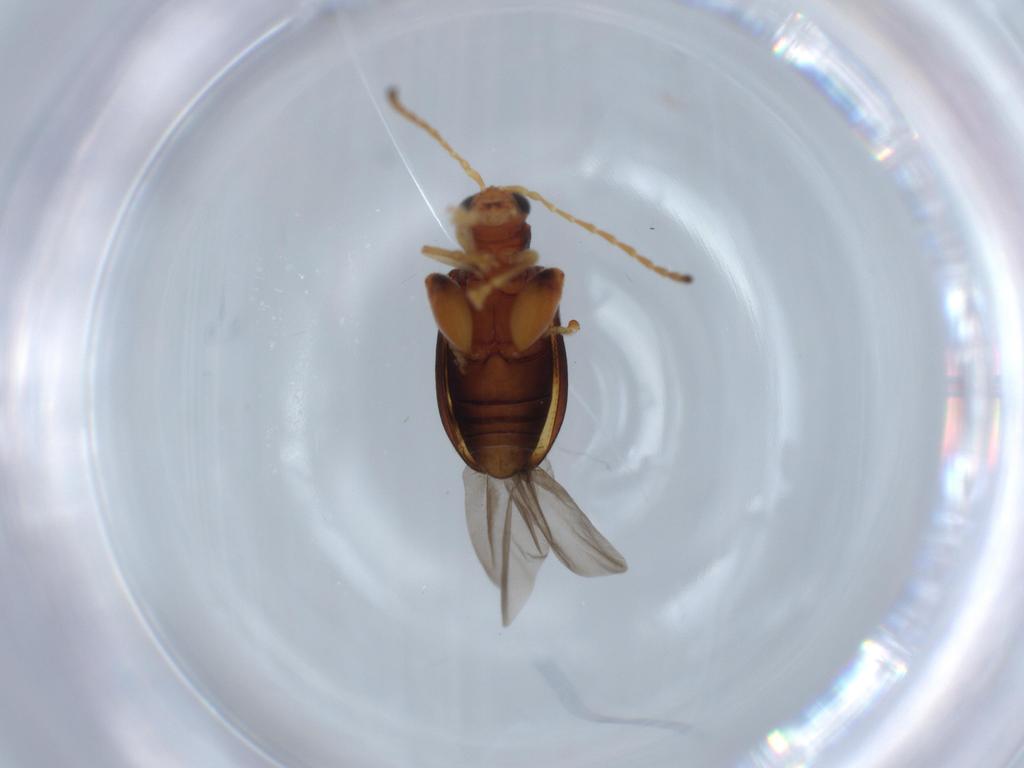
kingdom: Animalia
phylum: Arthropoda
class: Insecta
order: Coleoptera
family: Chrysomelidae
